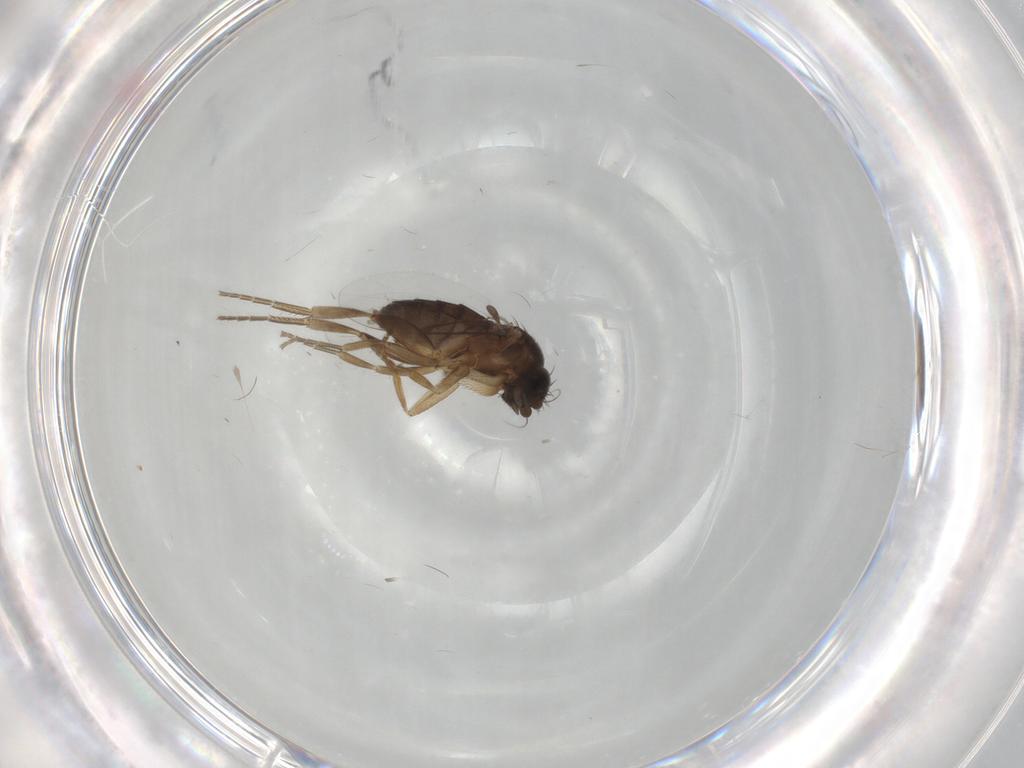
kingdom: Animalia
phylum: Arthropoda
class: Insecta
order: Diptera
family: Phoridae
